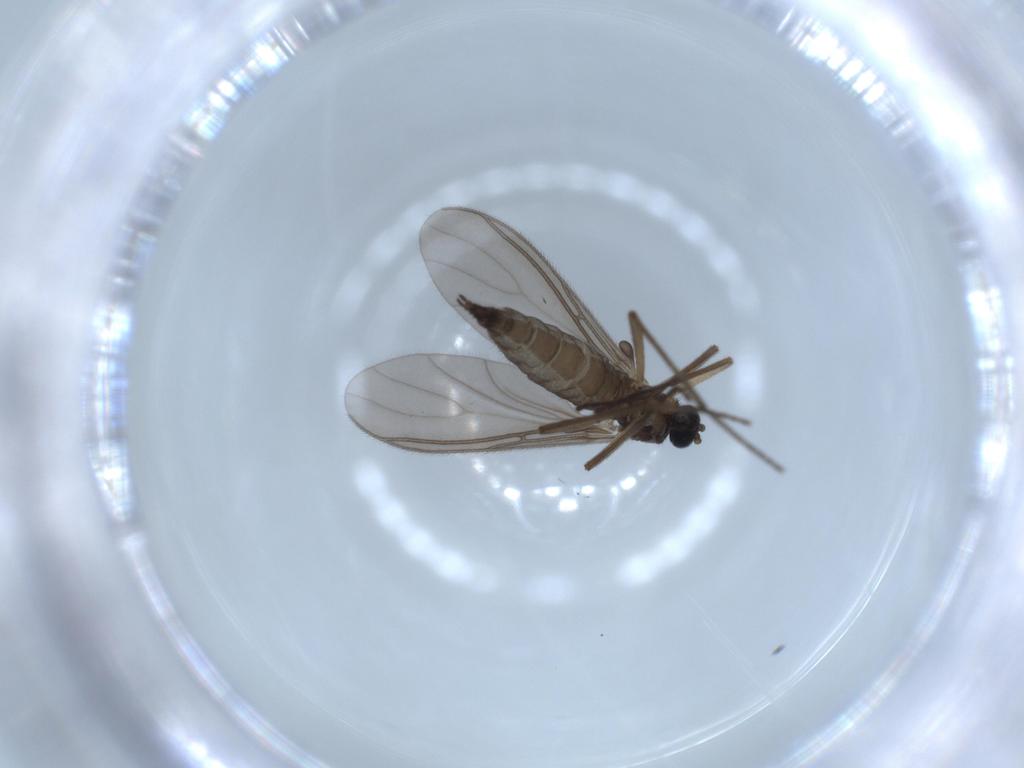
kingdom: Animalia
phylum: Arthropoda
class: Insecta
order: Diptera
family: Sciaridae
